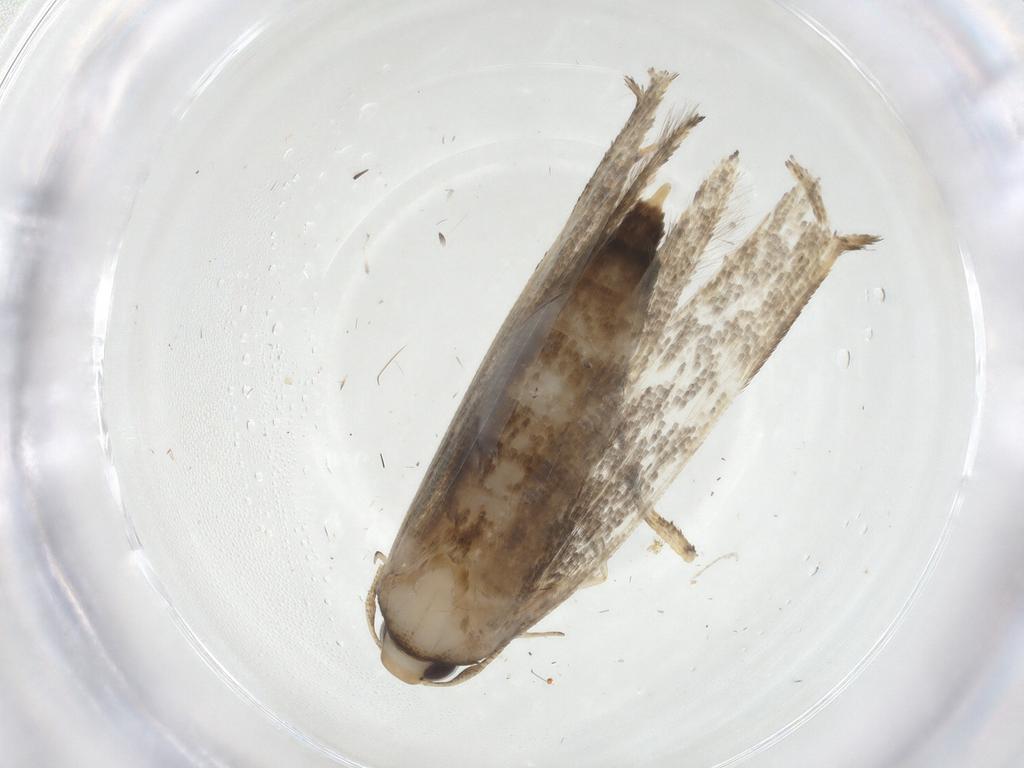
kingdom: Animalia
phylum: Arthropoda
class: Insecta
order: Lepidoptera
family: Cosmopterigidae
